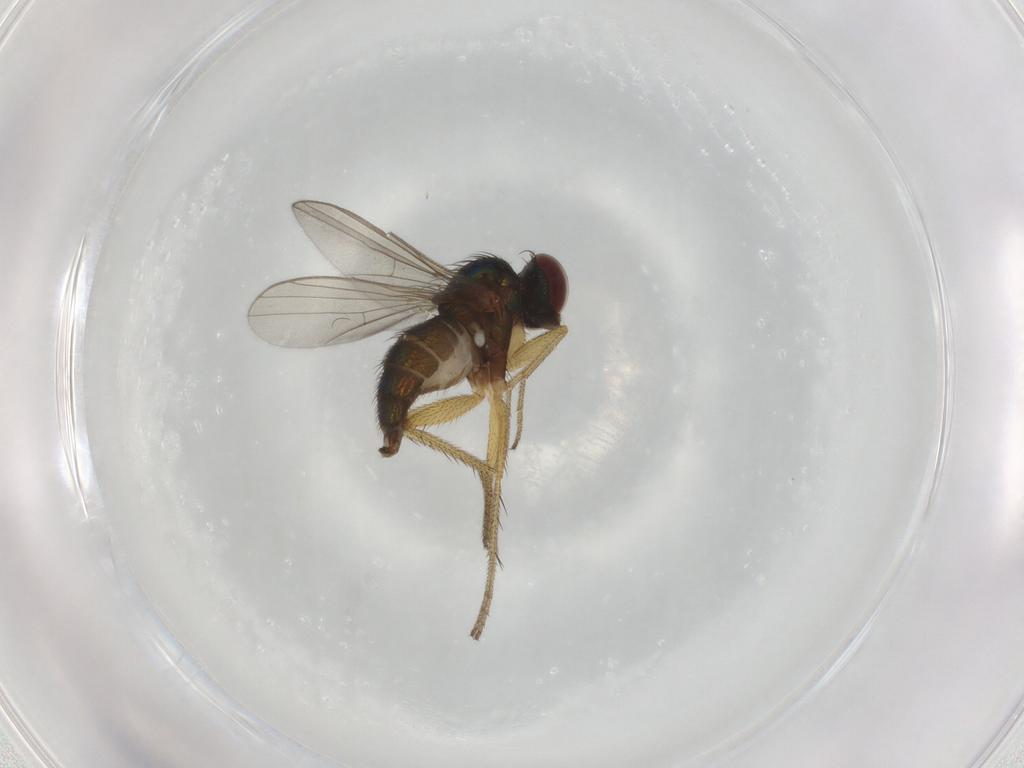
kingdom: Animalia
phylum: Arthropoda
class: Insecta
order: Diptera
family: Dolichopodidae
